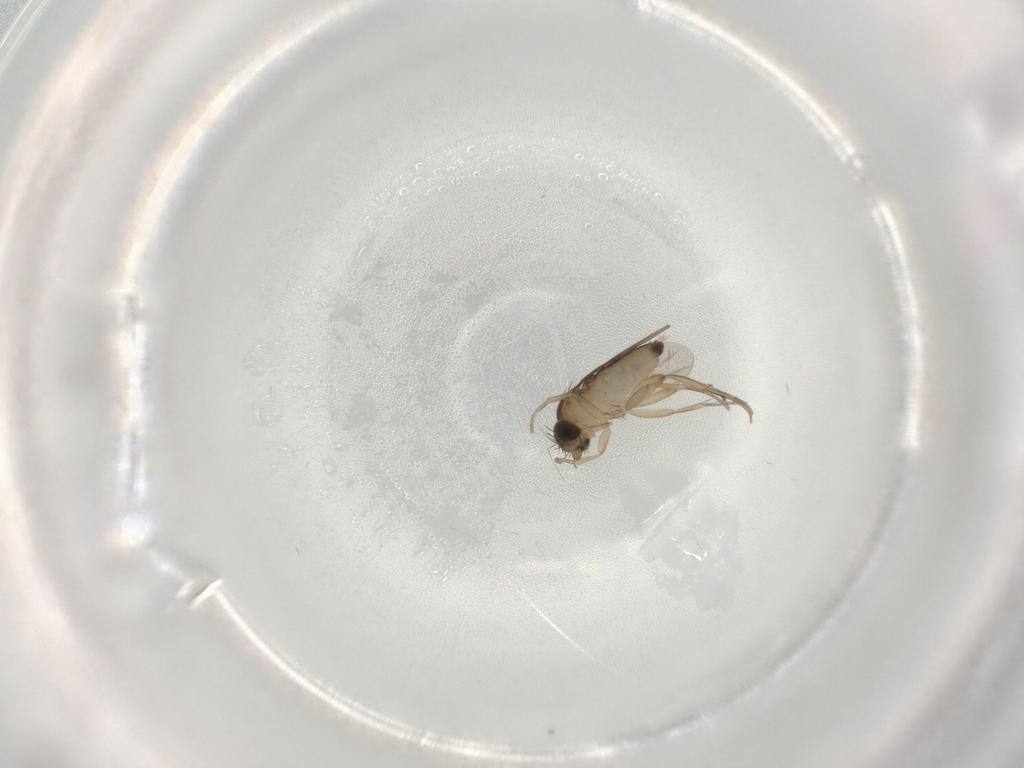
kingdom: Animalia
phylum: Arthropoda
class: Insecta
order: Diptera
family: Phoridae
